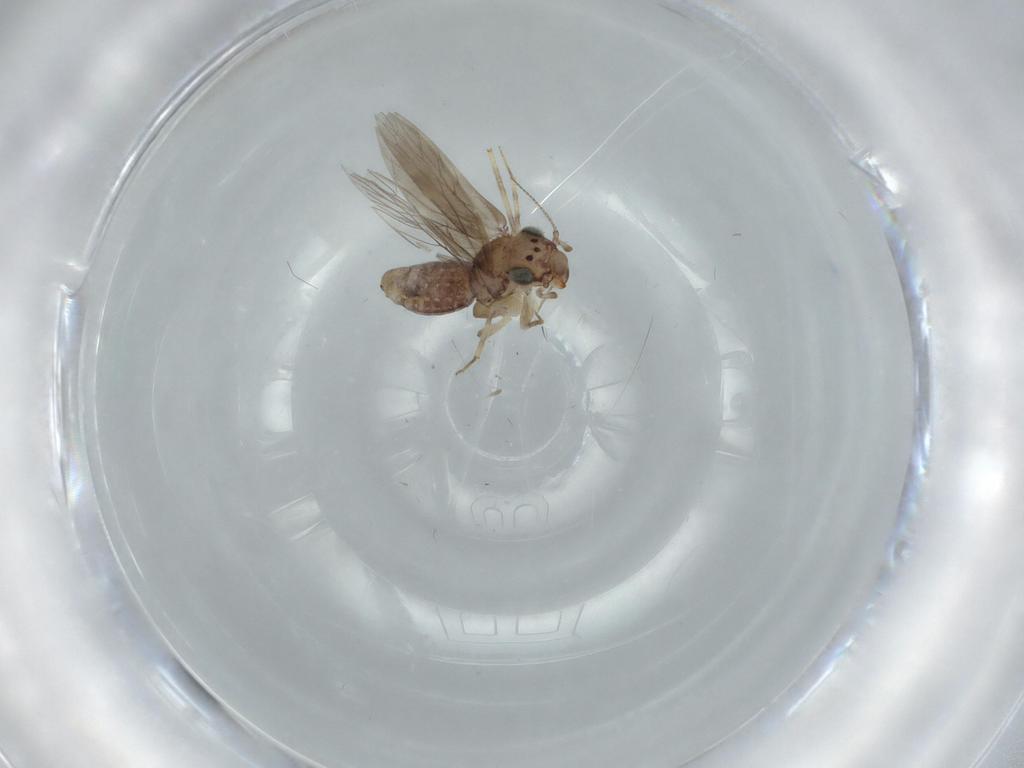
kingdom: Animalia
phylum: Arthropoda
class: Insecta
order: Psocodea
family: Lepidopsocidae
